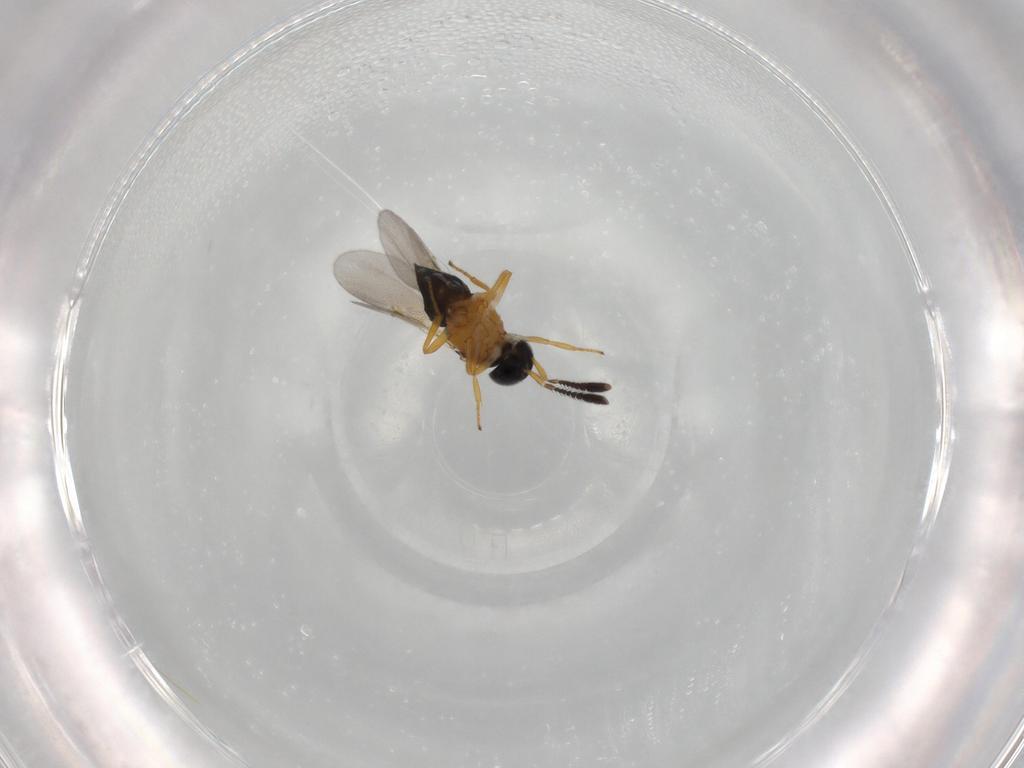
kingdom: Animalia
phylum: Arthropoda
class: Insecta
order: Hymenoptera
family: Encyrtidae
